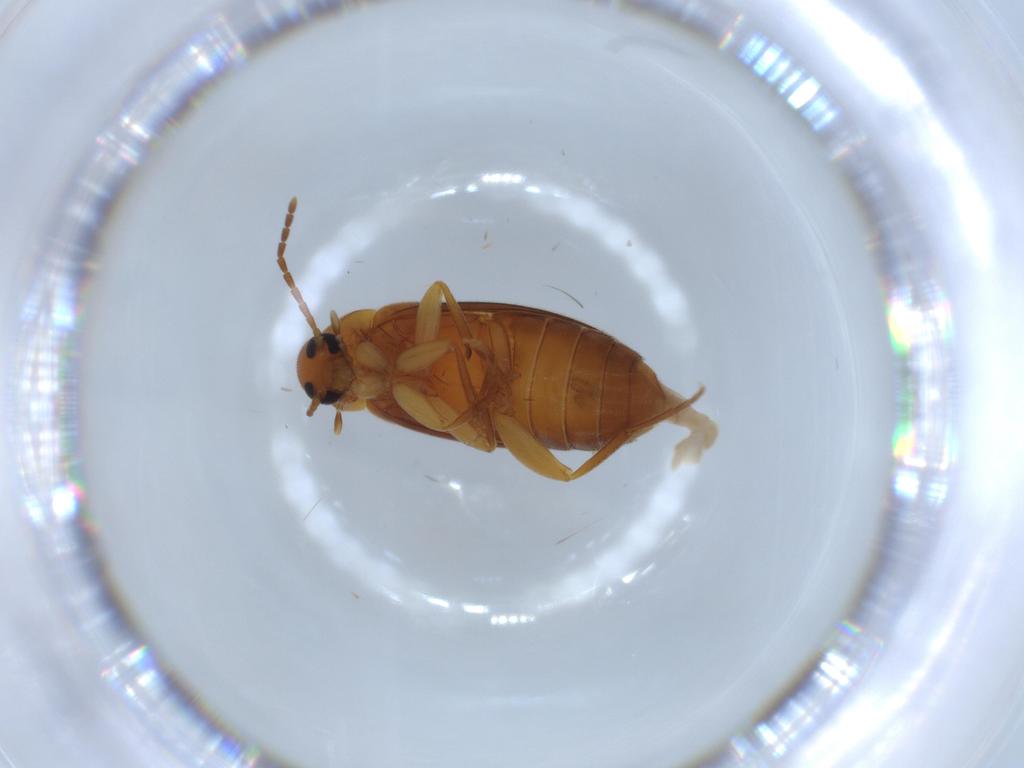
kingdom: Animalia
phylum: Arthropoda
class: Insecta
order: Coleoptera
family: Scraptiidae
